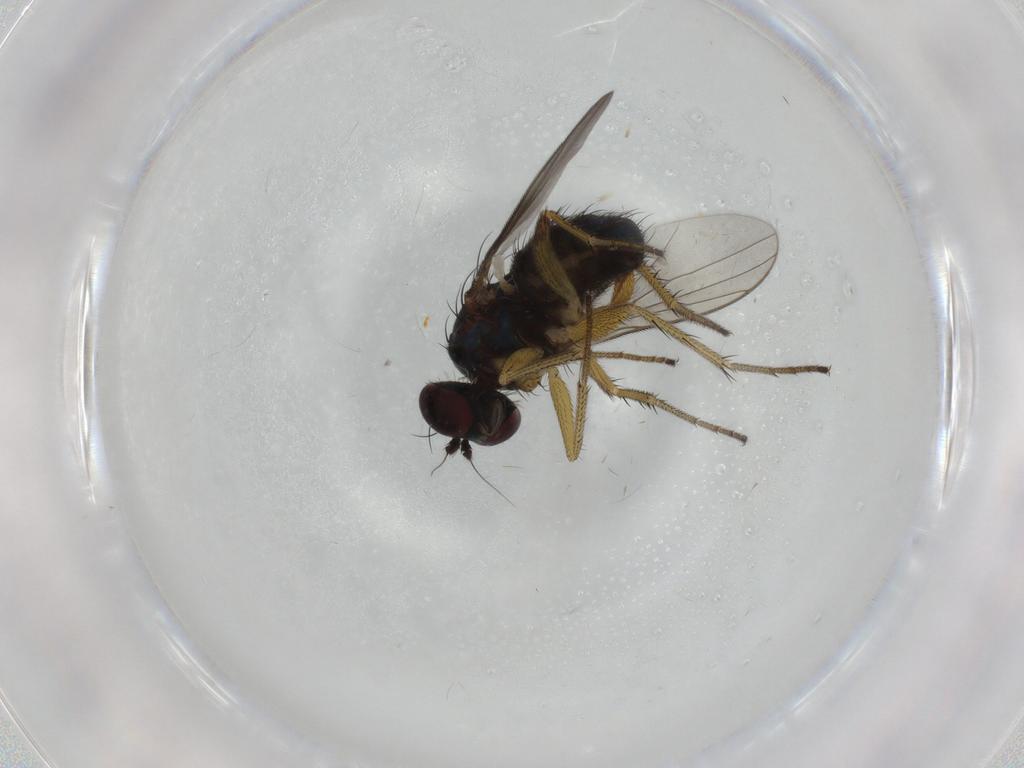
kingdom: Animalia
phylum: Arthropoda
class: Insecta
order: Diptera
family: Dolichopodidae
